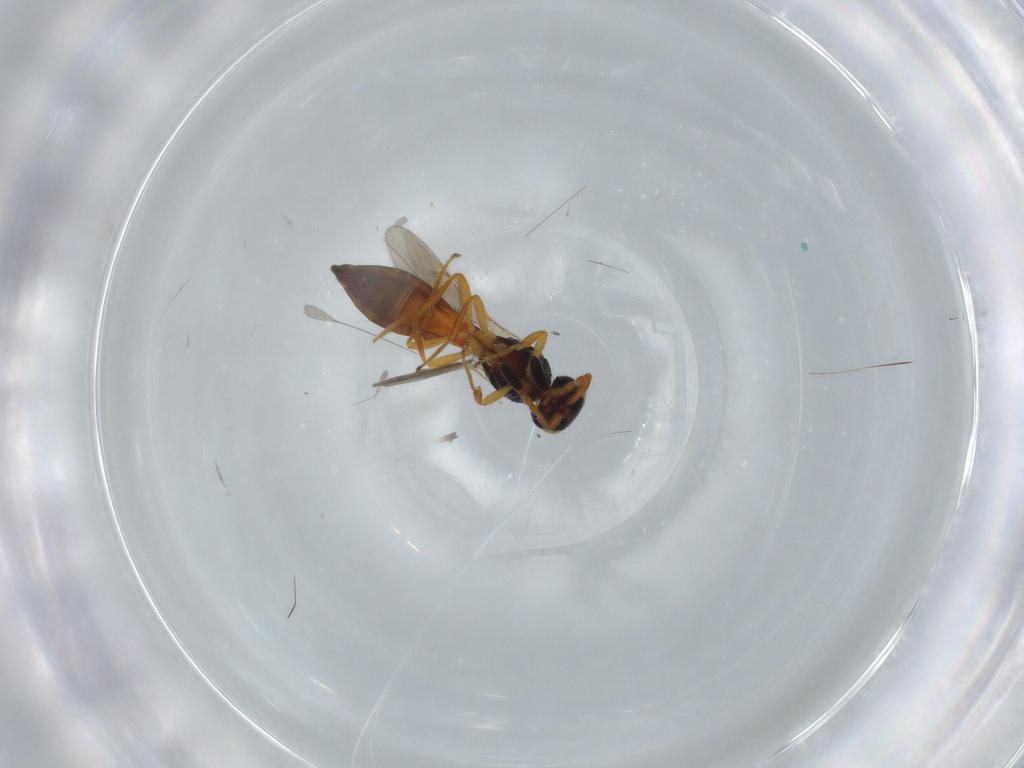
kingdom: Animalia
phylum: Arthropoda
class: Insecta
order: Hymenoptera
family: Scelionidae
